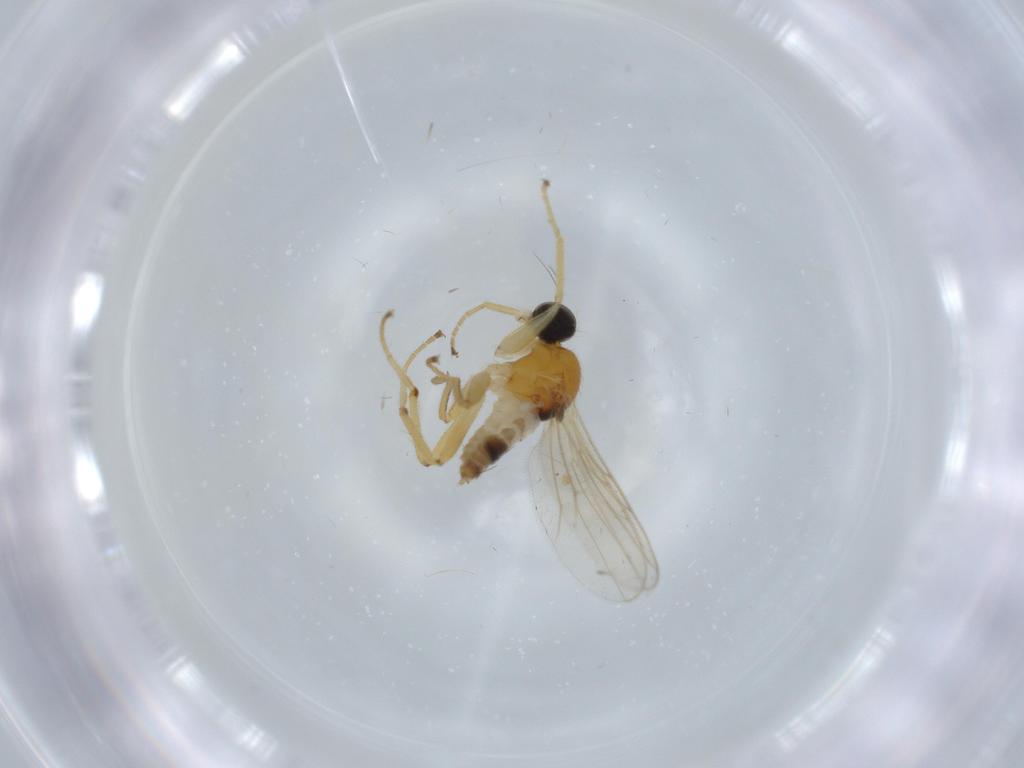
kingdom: Animalia
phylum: Arthropoda
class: Insecta
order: Diptera
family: Hybotidae
